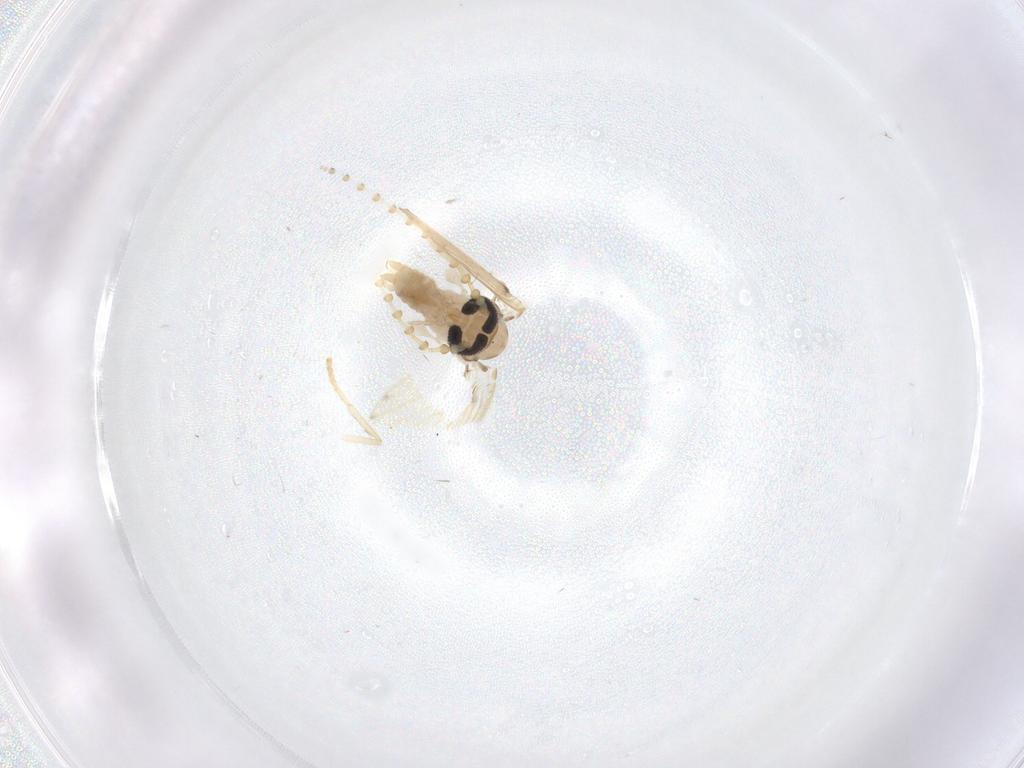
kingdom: Animalia
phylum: Arthropoda
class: Insecta
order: Diptera
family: Psychodidae
